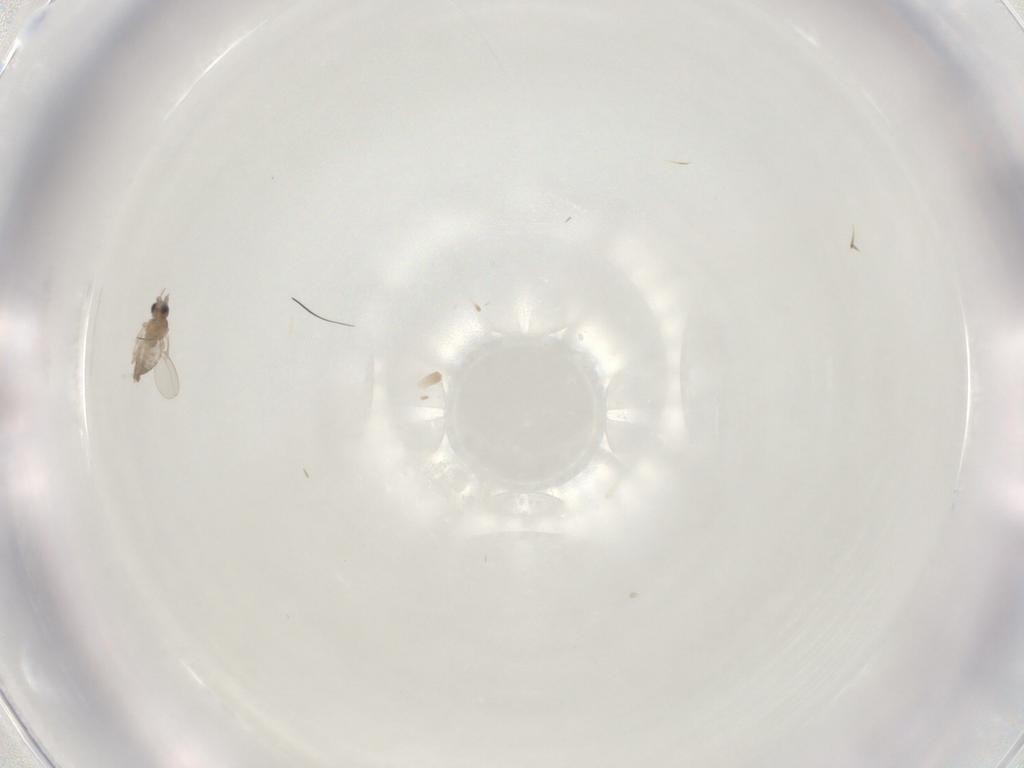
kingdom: Animalia
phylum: Arthropoda
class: Insecta
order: Diptera
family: Cecidomyiidae
